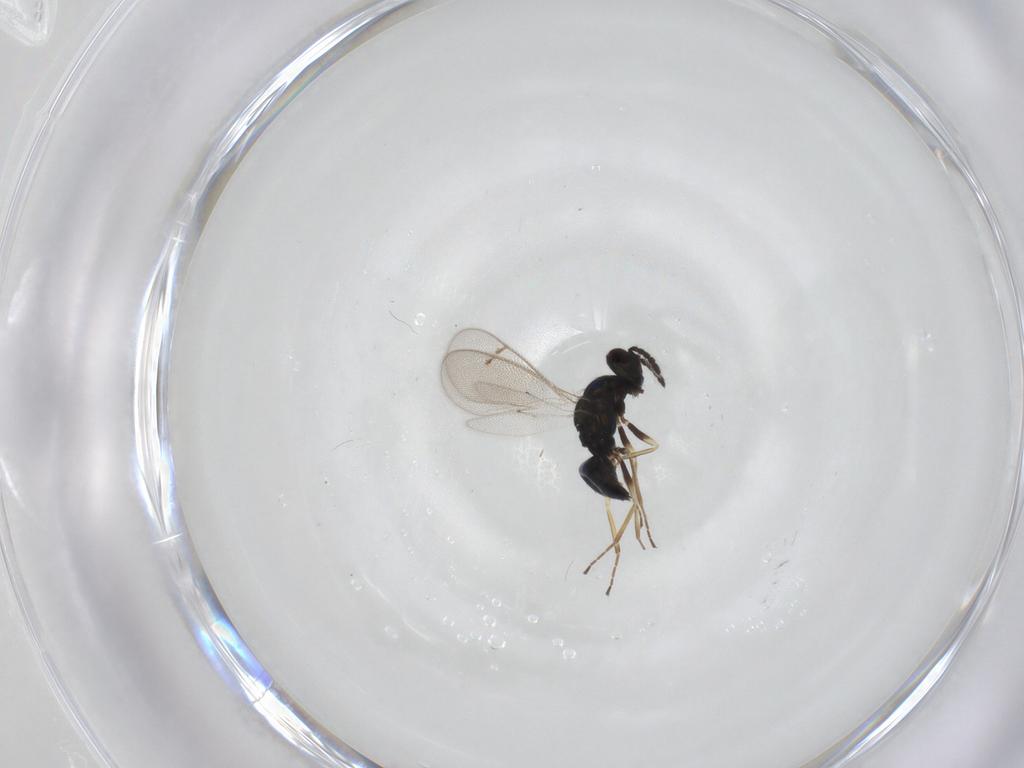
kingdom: Animalia
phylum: Arthropoda
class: Insecta
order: Hymenoptera
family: Eulophidae
